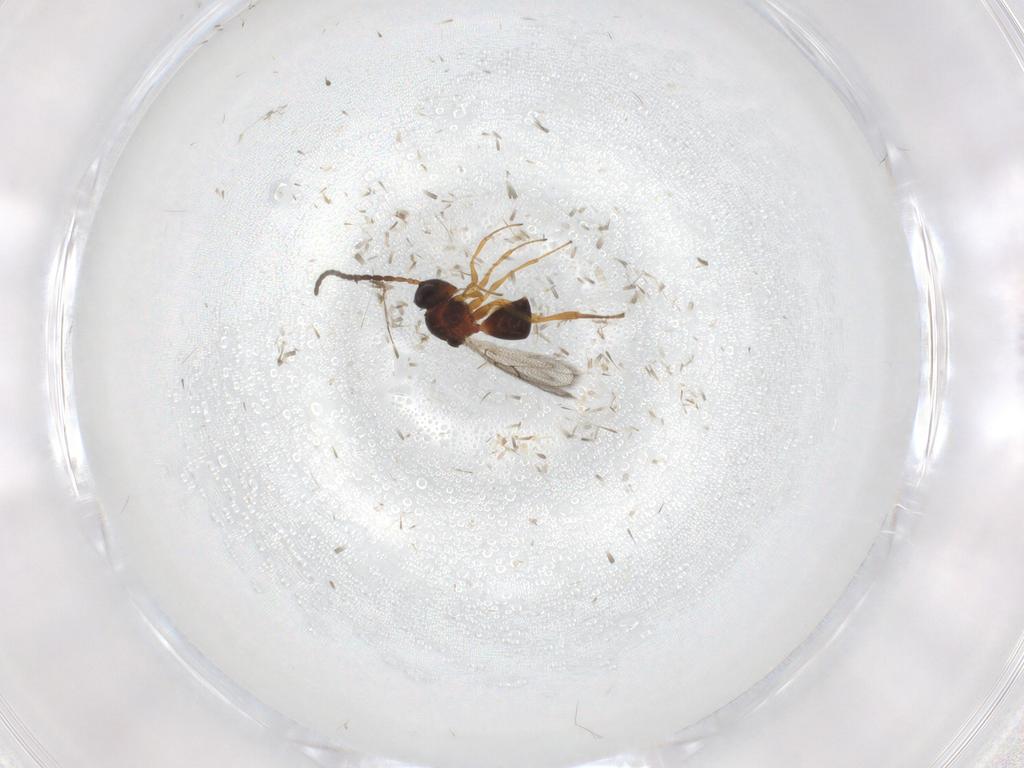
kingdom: Animalia
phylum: Arthropoda
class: Insecta
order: Hymenoptera
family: Figitidae
